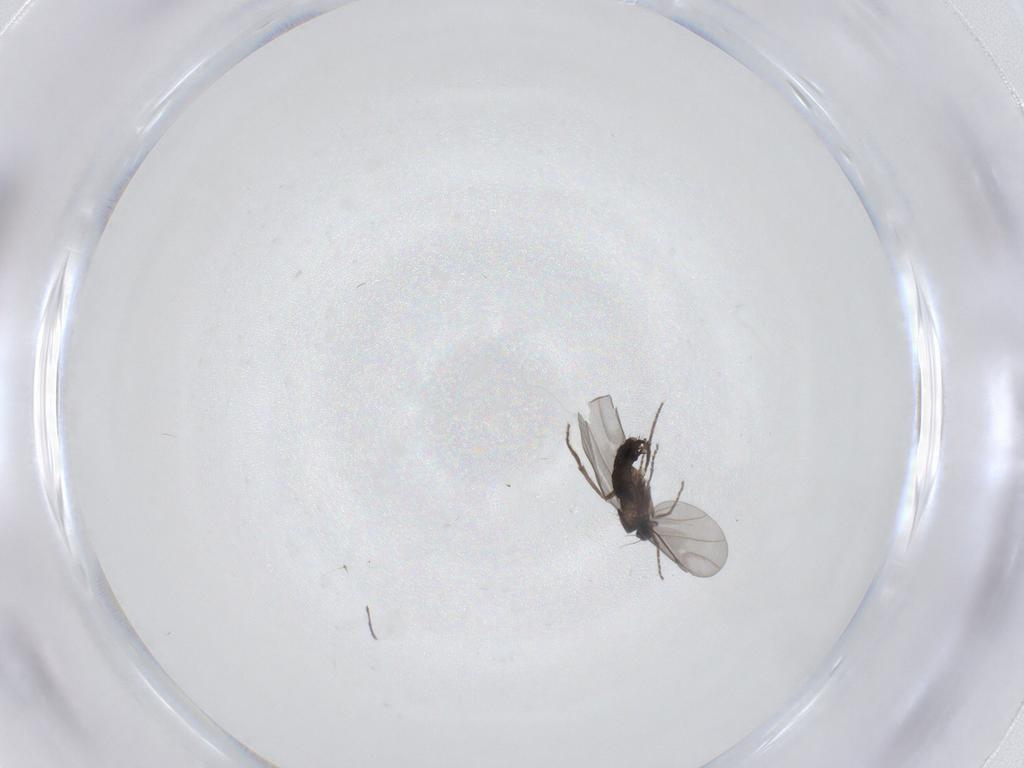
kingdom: Animalia
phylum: Arthropoda
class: Insecta
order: Diptera
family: Phoridae
